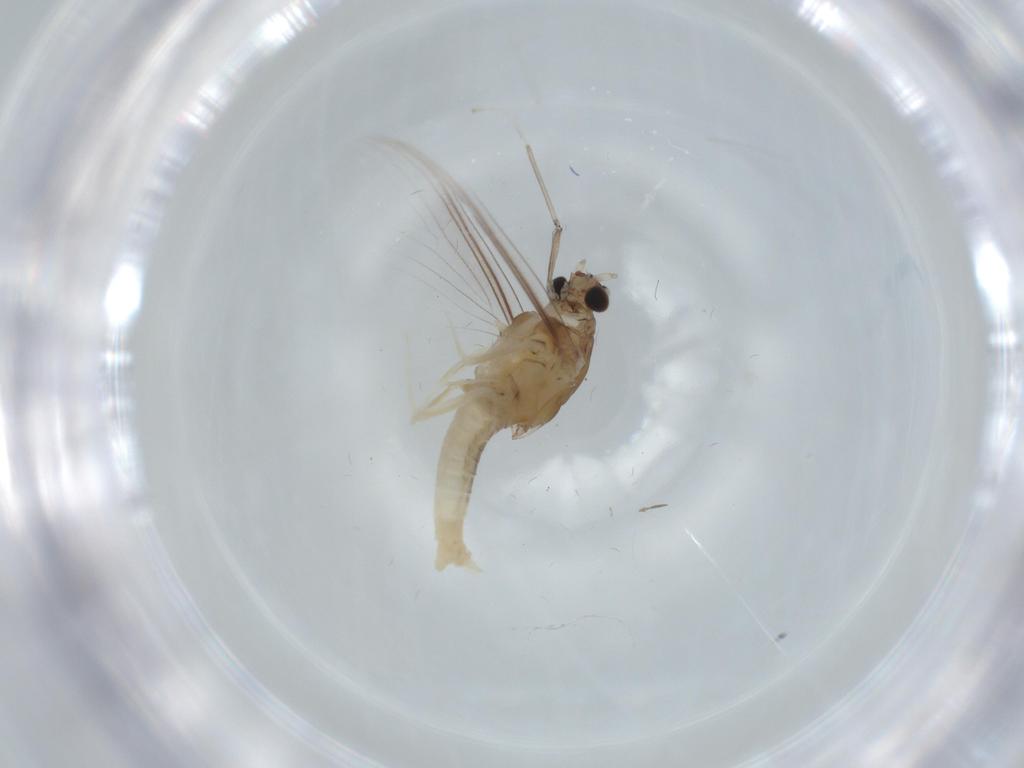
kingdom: Animalia
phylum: Arthropoda
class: Insecta
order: Ephemeroptera
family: Caenidae
